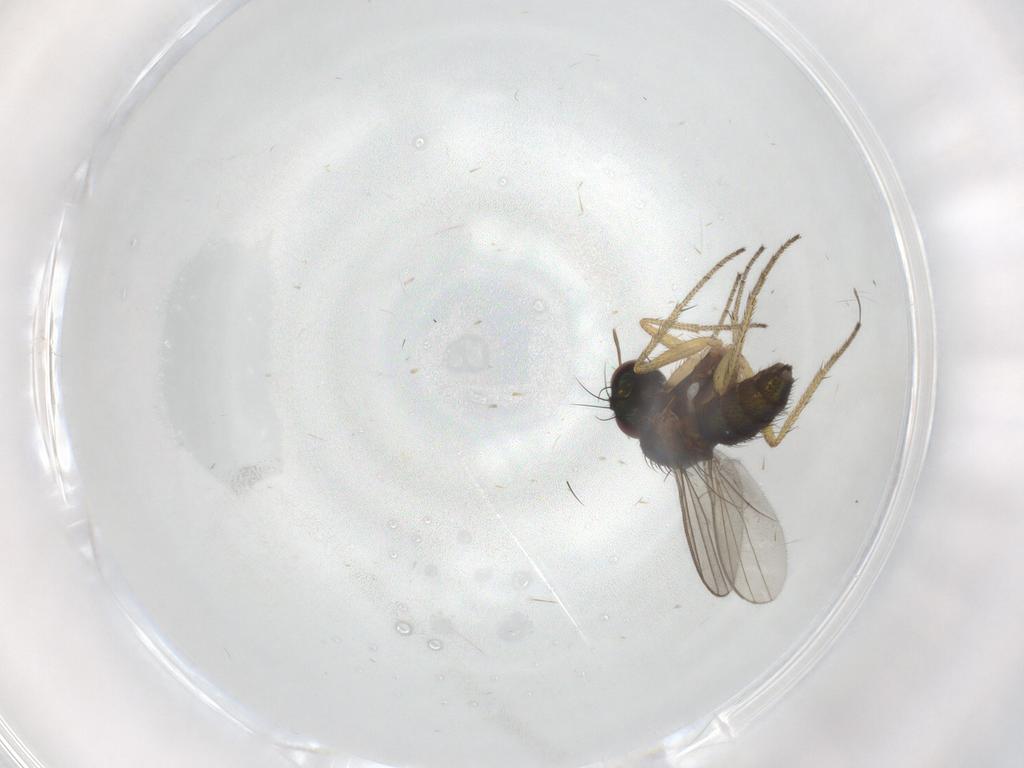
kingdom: Animalia
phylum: Arthropoda
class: Insecta
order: Diptera
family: Chironomidae
